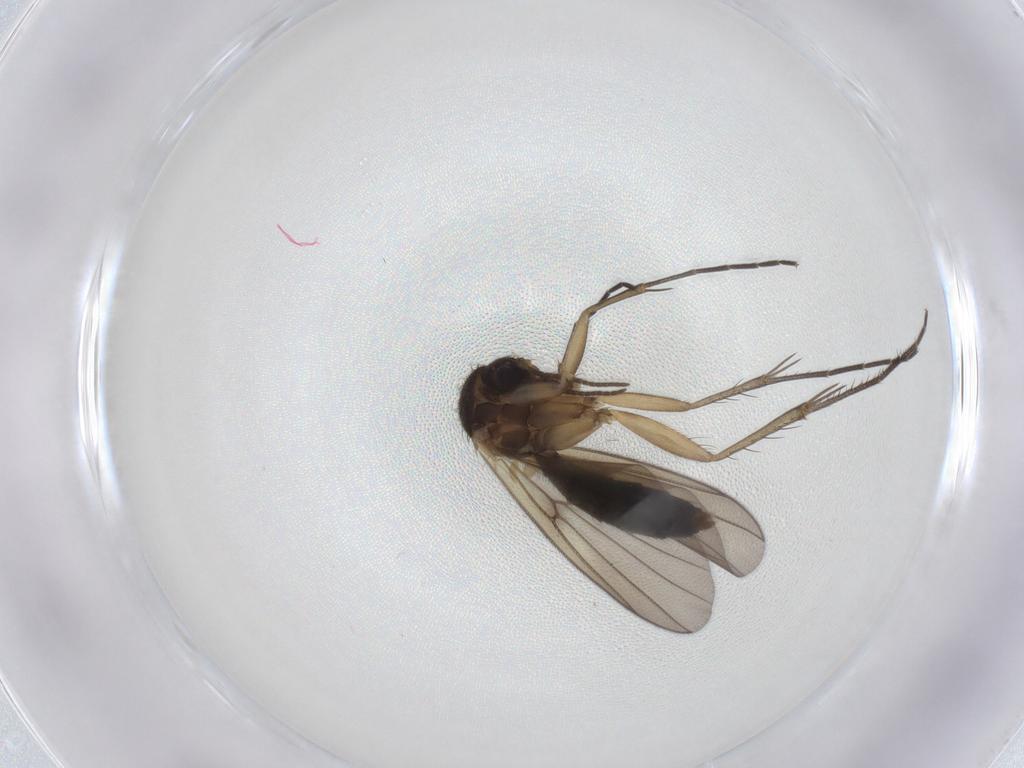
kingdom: Animalia
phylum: Arthropoda
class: Insecta
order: Diptera
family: Mycetophilidae
